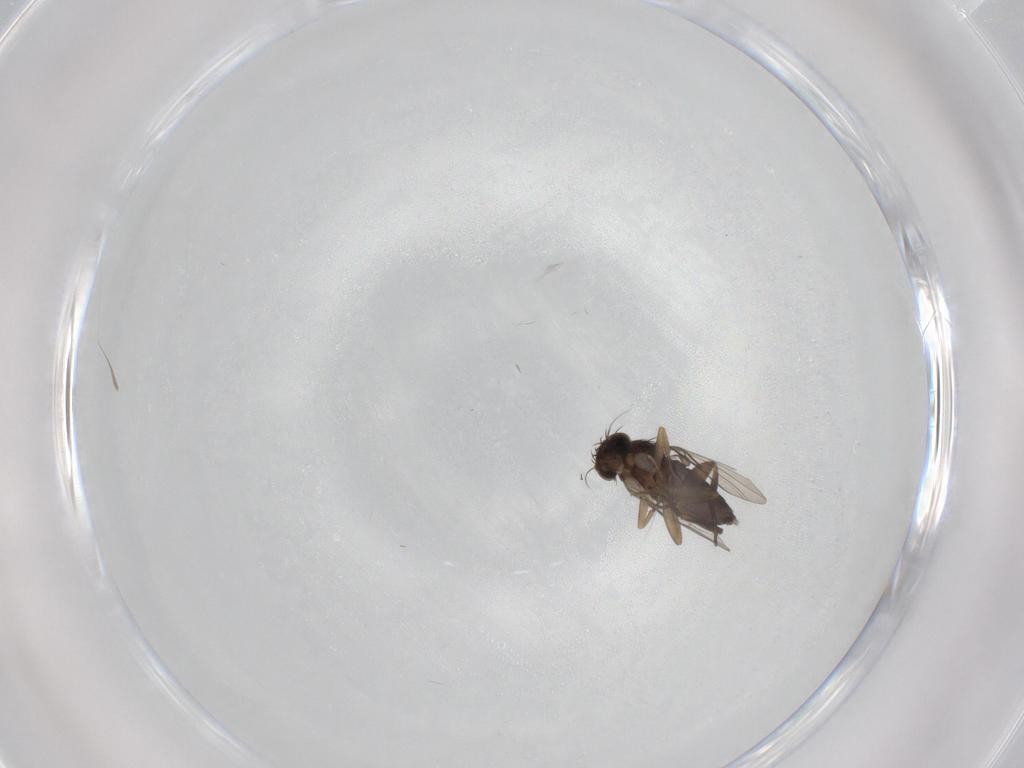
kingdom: Animalia
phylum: Arthropoda
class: Insecta
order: Diptera
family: Phoridae
